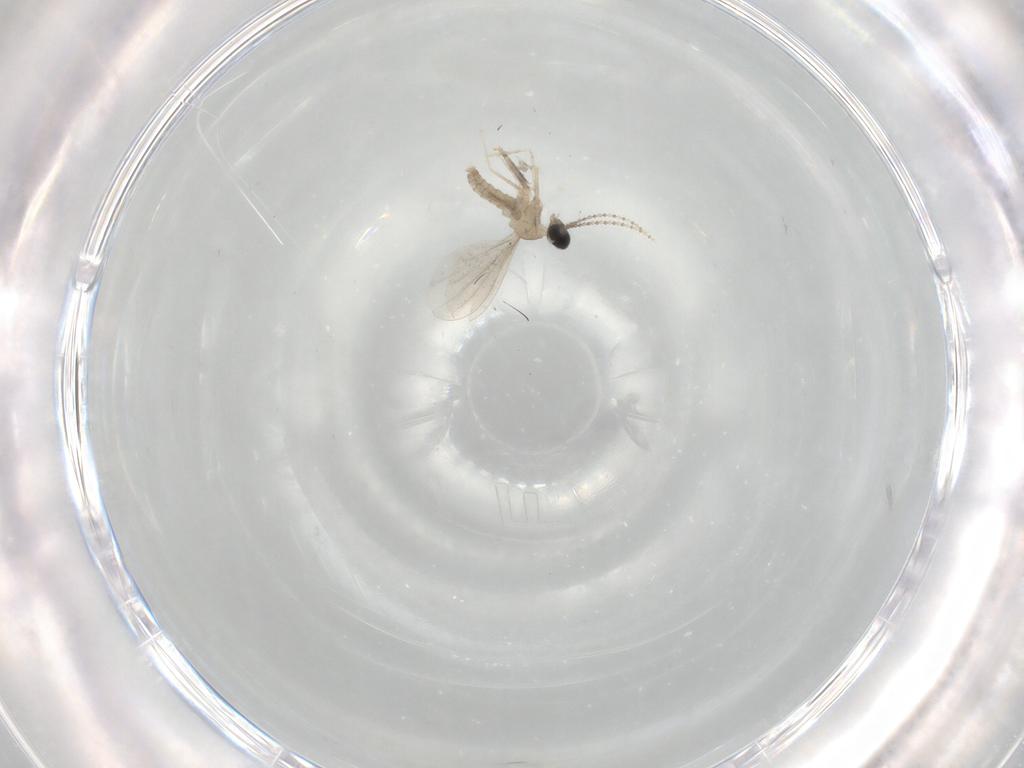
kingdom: Animalia
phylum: Arthropoda
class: Insecta
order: Diptera
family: Cecidomyiidae
